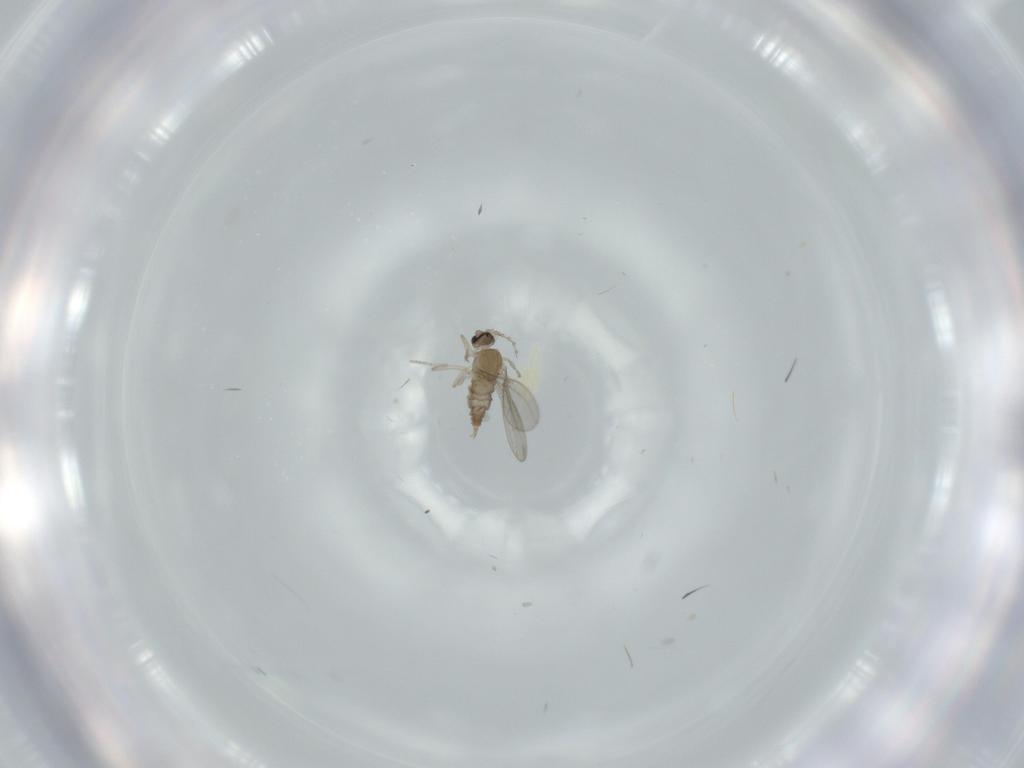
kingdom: Animalia
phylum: Arthropoda
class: Insecta
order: Diptera
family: Cecidomyiidae
